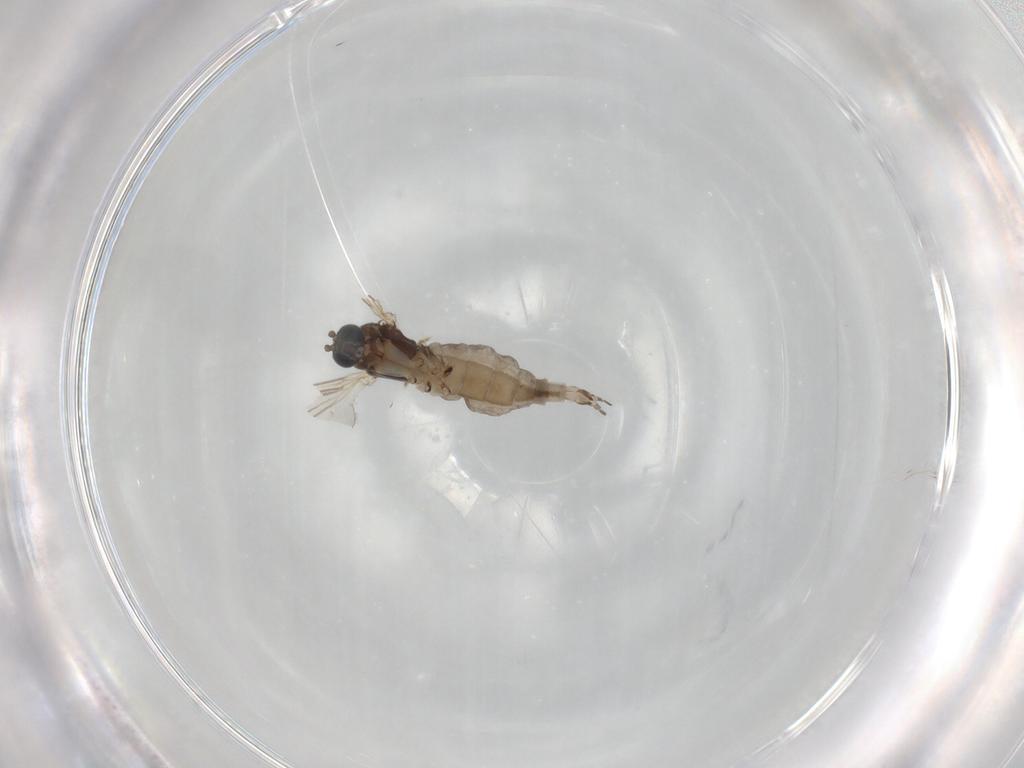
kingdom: Animalia
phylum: Arthropoda
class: Insecta
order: Diptera
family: Sciaridae
